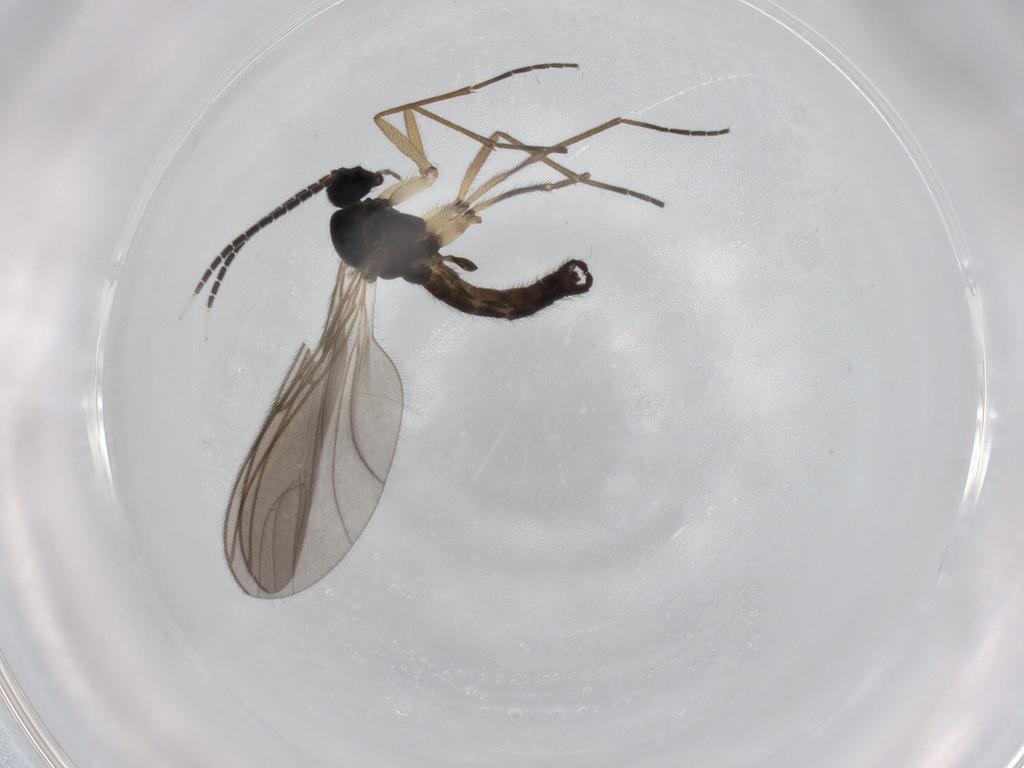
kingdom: Animalia
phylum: Arthropoda
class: Insecta
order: Diptera
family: Sciaridae
